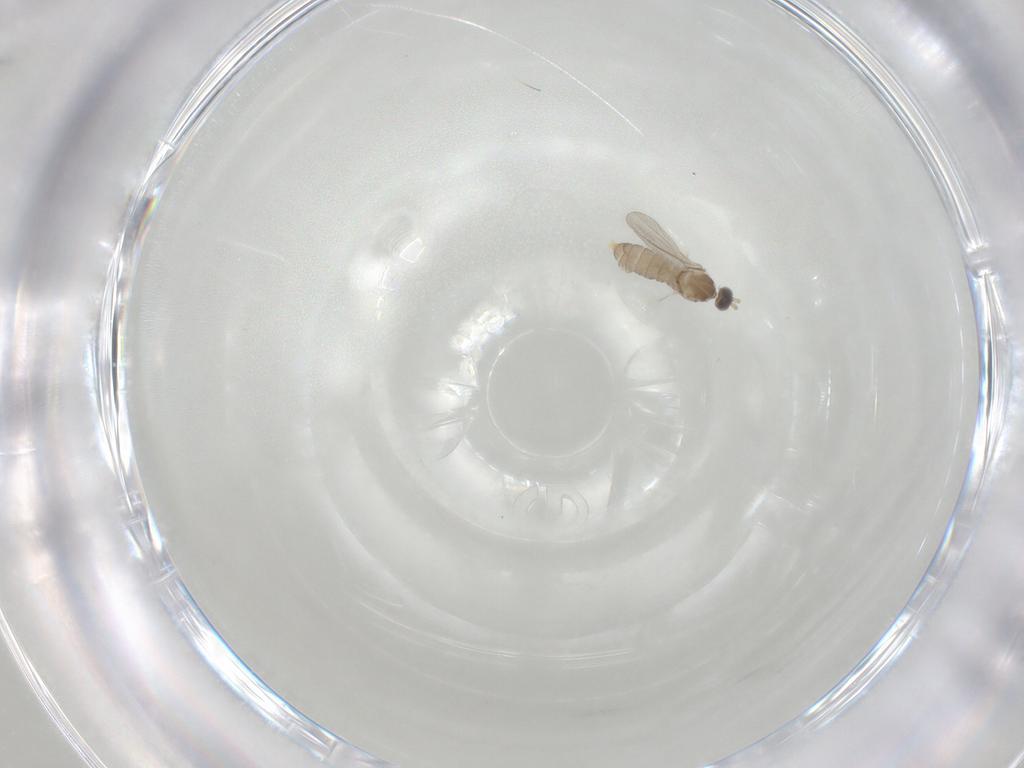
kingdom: Animalia
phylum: Arthropoda
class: Insecta
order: Diptera
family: Cecidomyiidae
